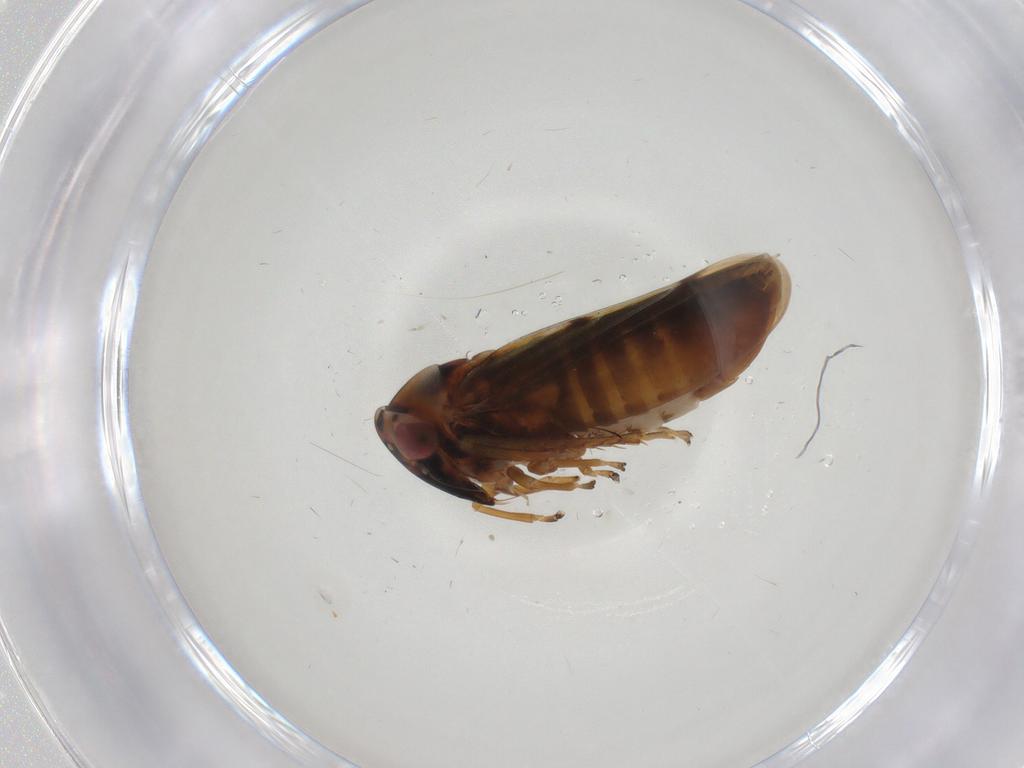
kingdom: Animalia
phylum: Arthropoda
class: Insecta
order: Hemiptera
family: Cicadellidae
